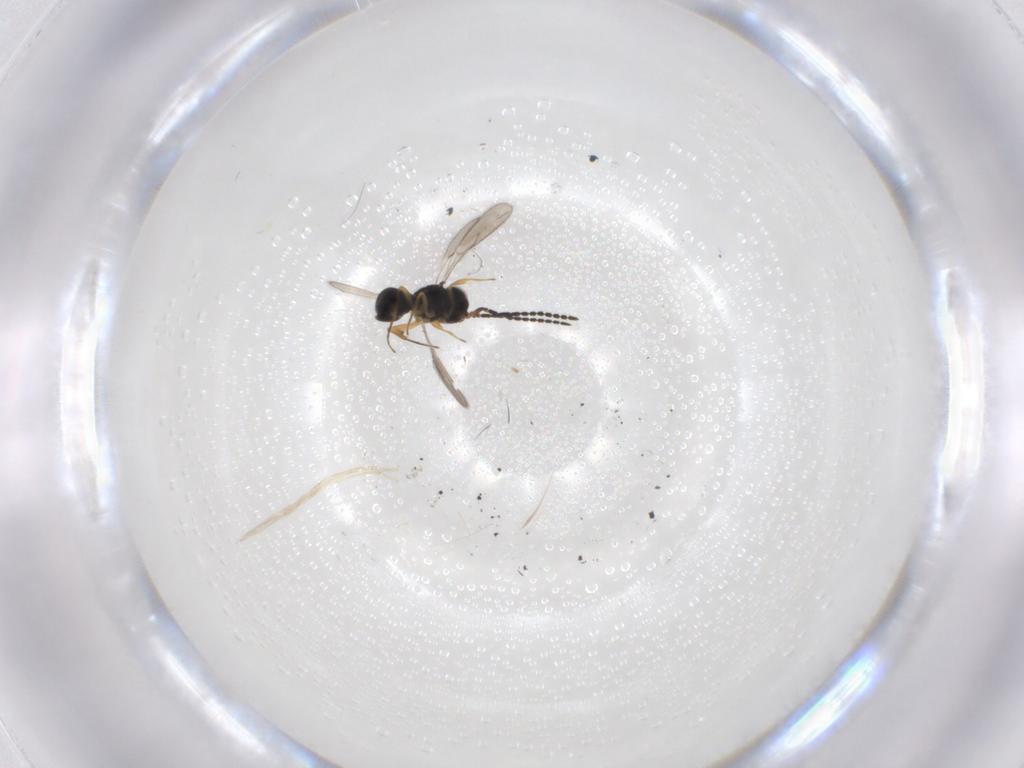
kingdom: Animalia
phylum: Arthropoda
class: Insecta
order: Hymenoptera
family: Scelionidae
